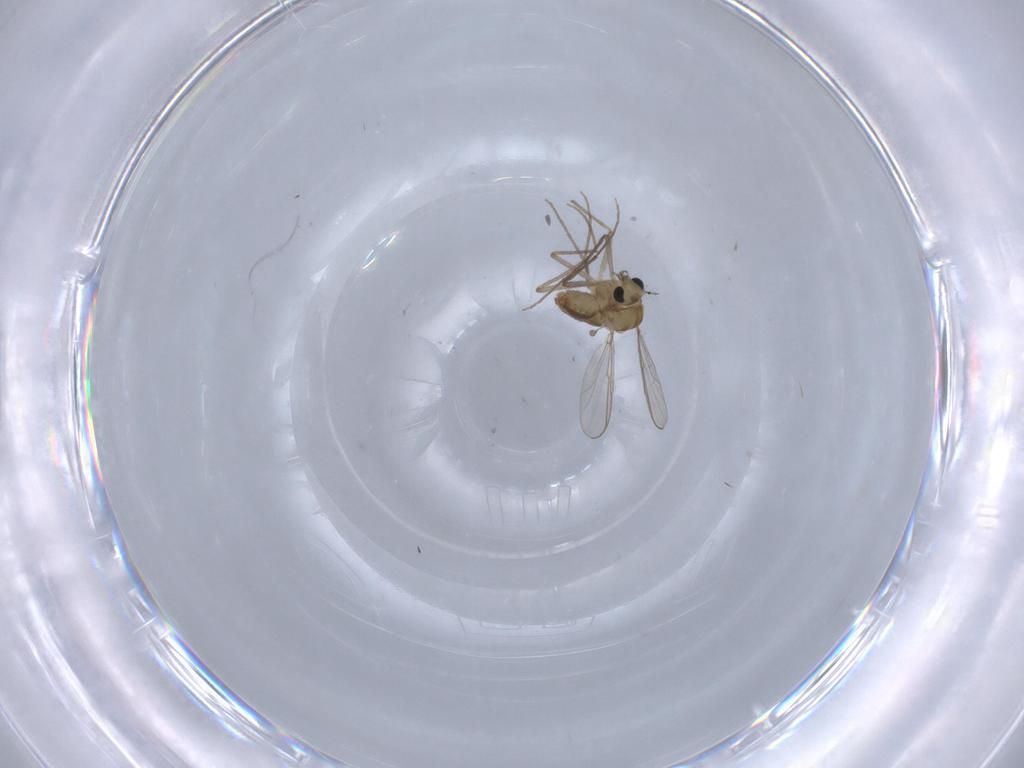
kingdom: Animalia
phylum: Arthropoda
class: Insecta
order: Diptera
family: Chironomidae
